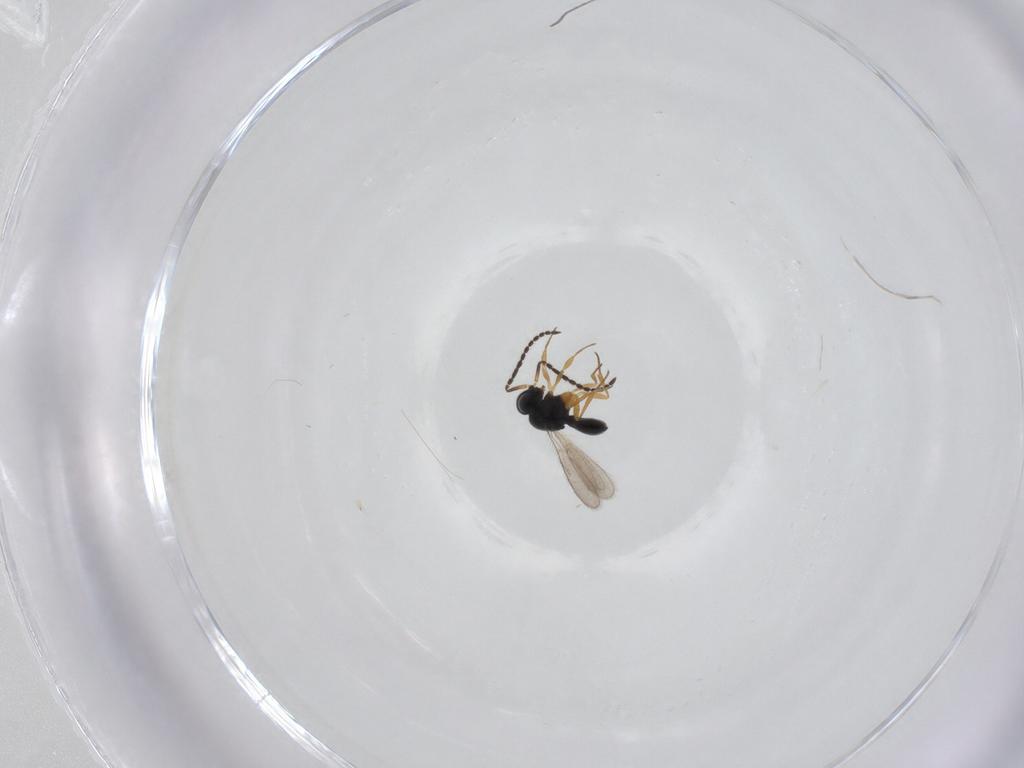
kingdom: Animalia
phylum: Arthropoda
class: Insecta
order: Hymenoptera
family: Scelionidae
